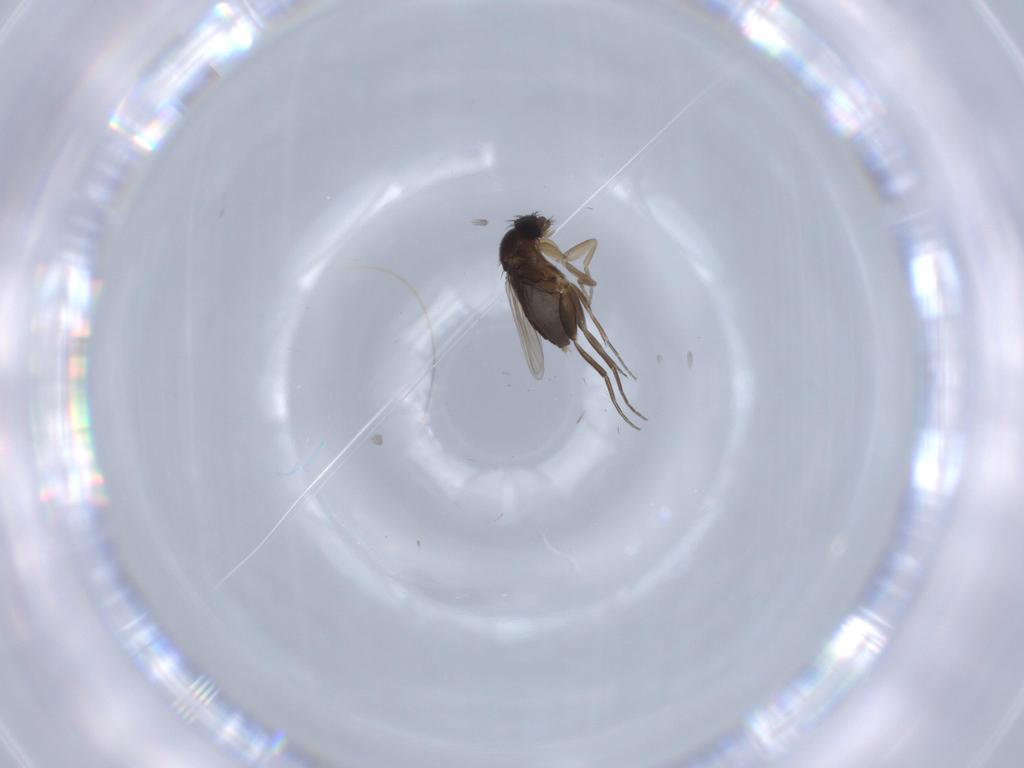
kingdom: Animalia
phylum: Arthropoda
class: Insecta
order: Diptera
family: Phoridae
